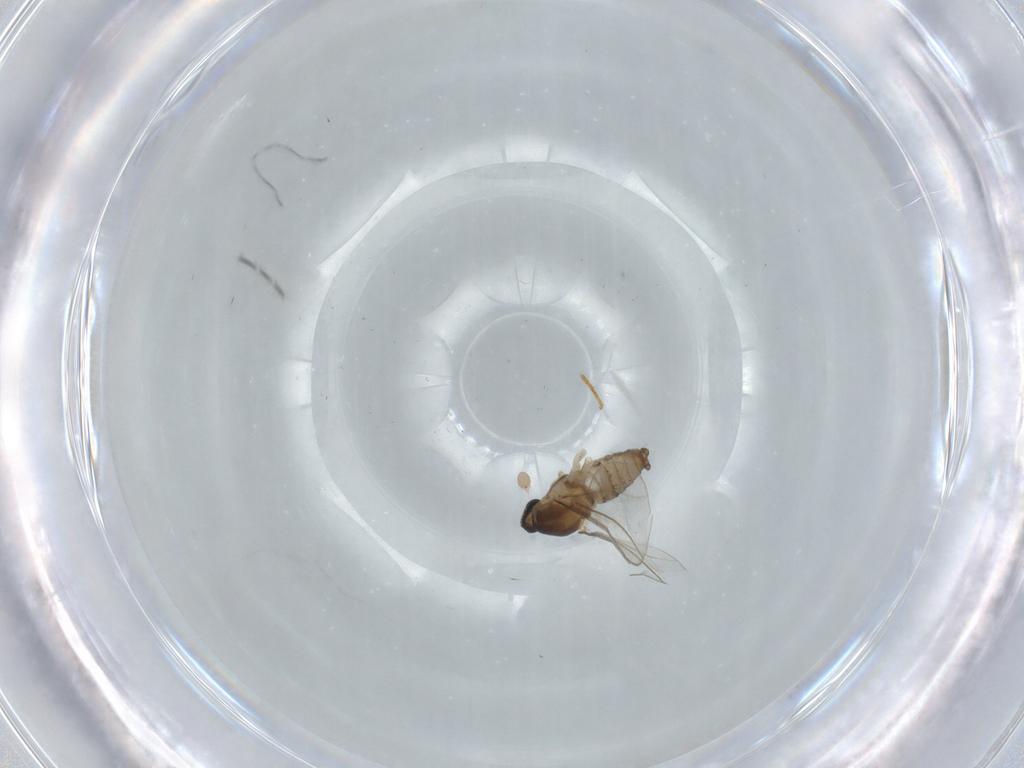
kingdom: Animalia
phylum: Arthropoda
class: Insecta
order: Diptera
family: Cecidomyiidae
